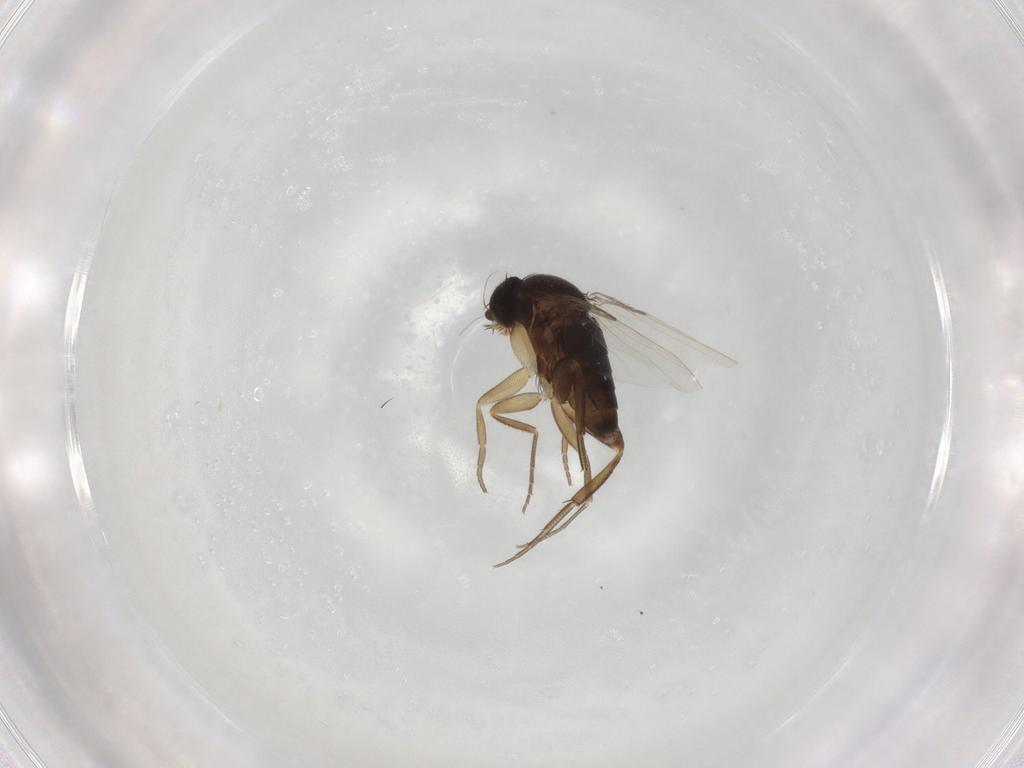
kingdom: Animalia
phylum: Arthropoda
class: Insecta
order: Diptera
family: Phoridae
